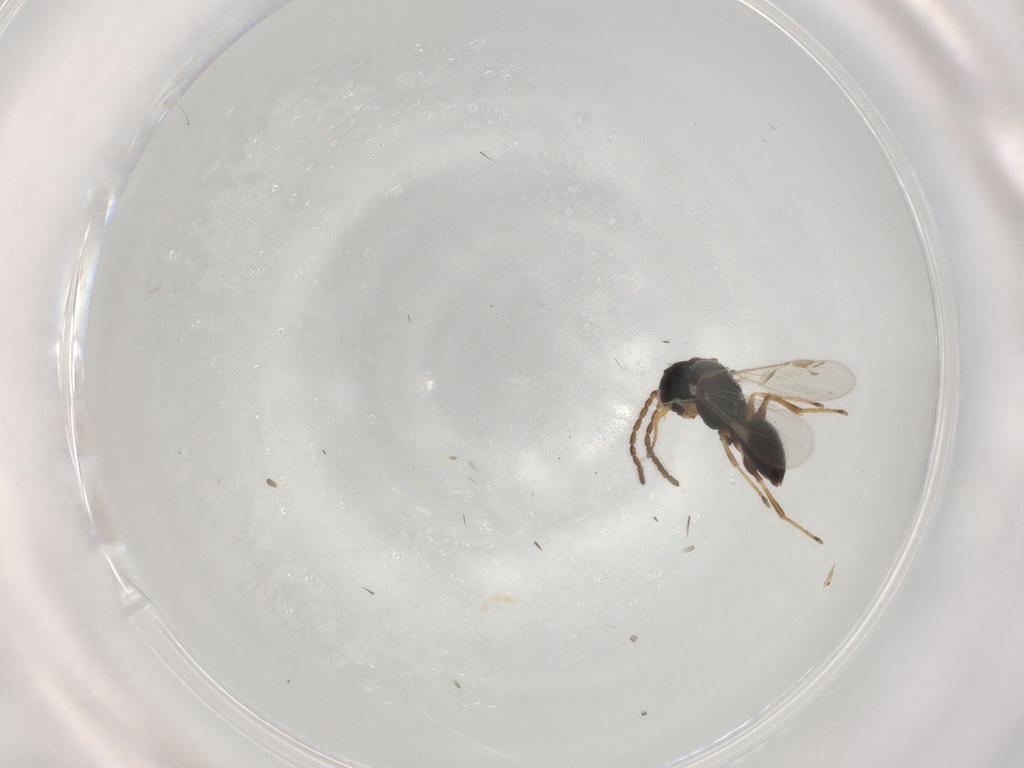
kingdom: Animalia
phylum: Arthropoda
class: Insecta
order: Hymenoptera
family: Dryinidae
